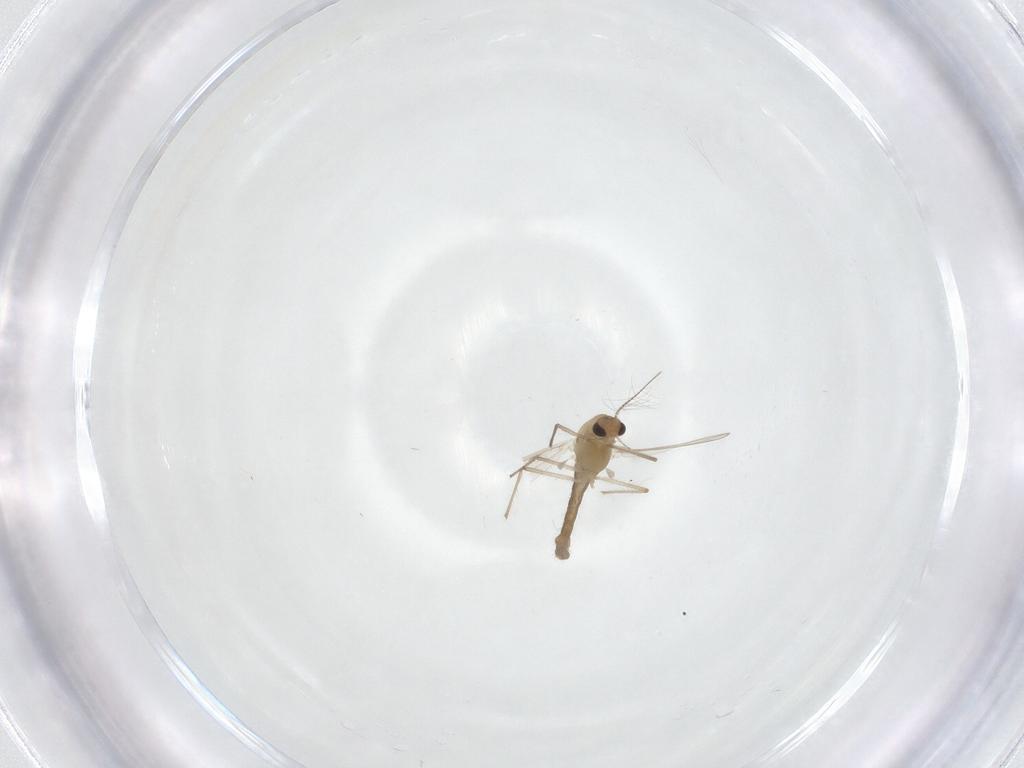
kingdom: Animalia
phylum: Arthropoda
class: Insecta
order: Diptera
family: Chironomidae
